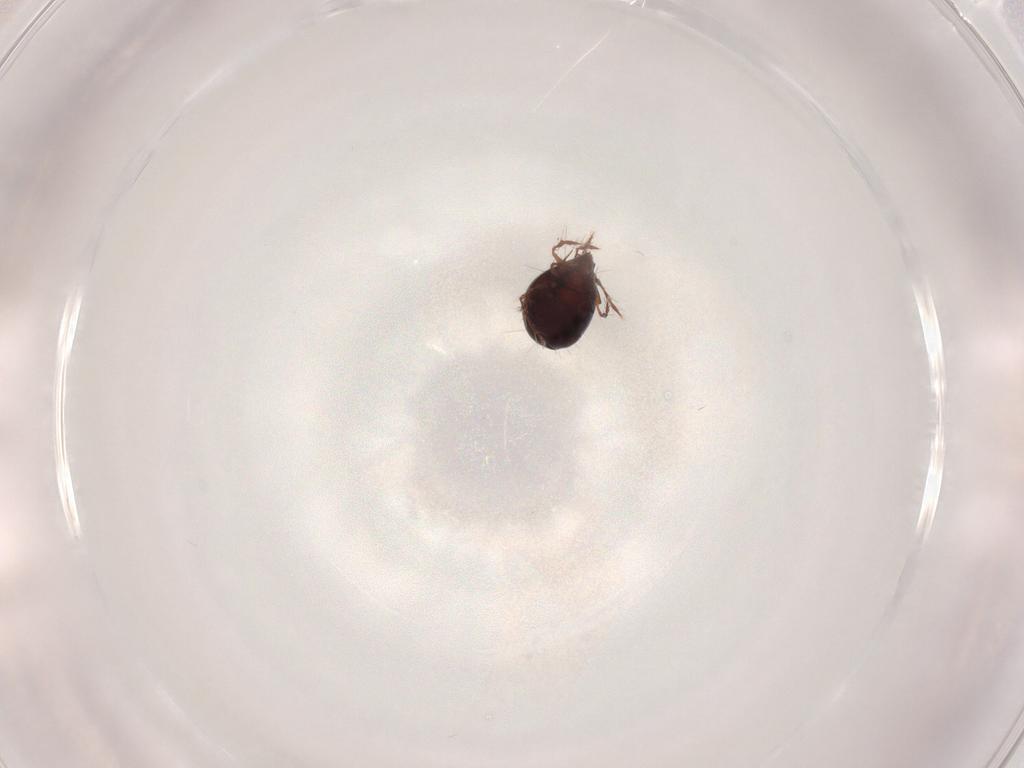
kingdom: Animalia
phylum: Arthropoda
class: Arachnida
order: Sarcoptiformes
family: Ceratoppiidae
